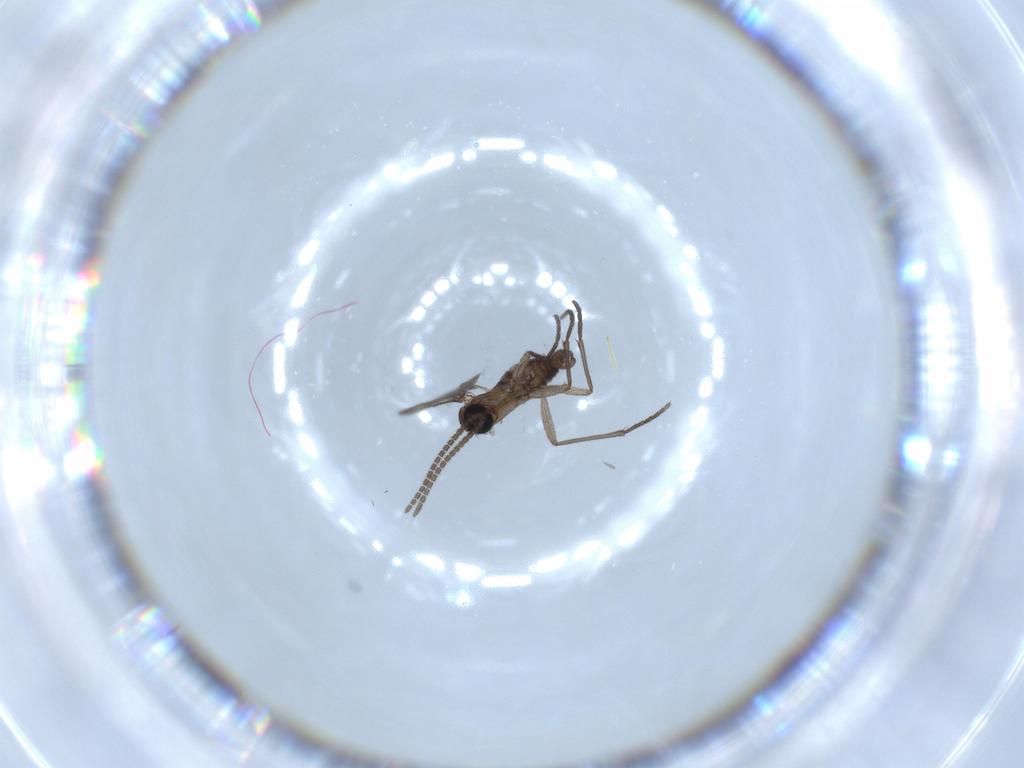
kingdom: Animalia
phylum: Arthropoda
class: Insecta
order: Diptera
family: Sciaridae
